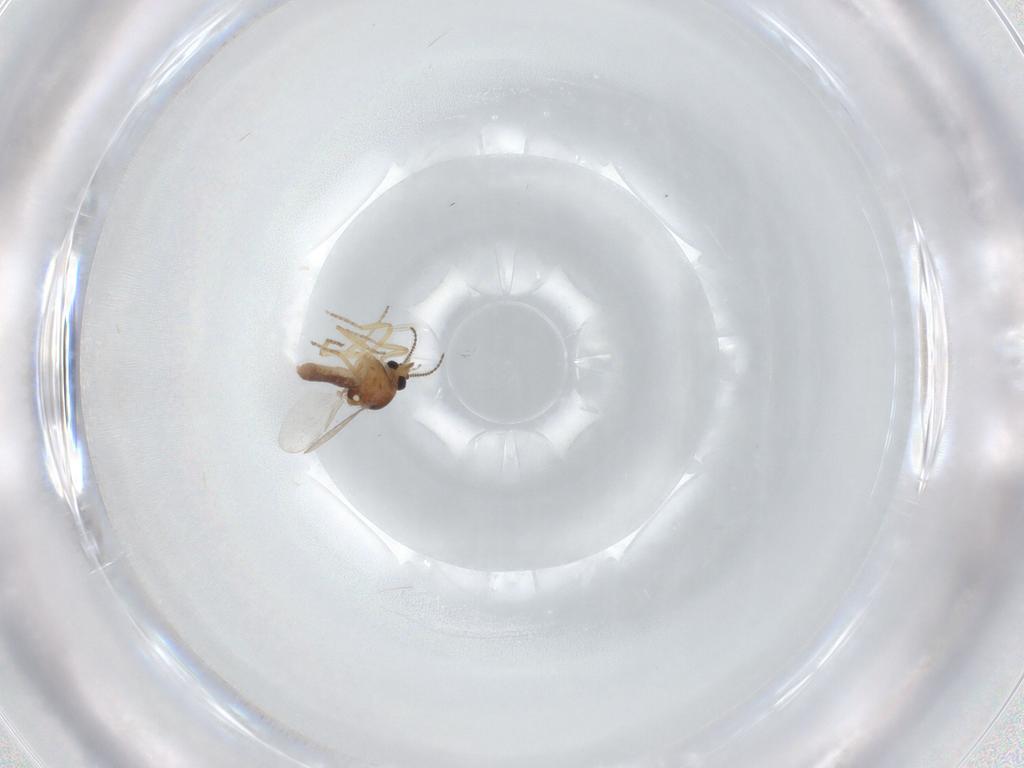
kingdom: Animalia
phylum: Arthropoda
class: Insecta
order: Diptera
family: Ceratopogonidae
